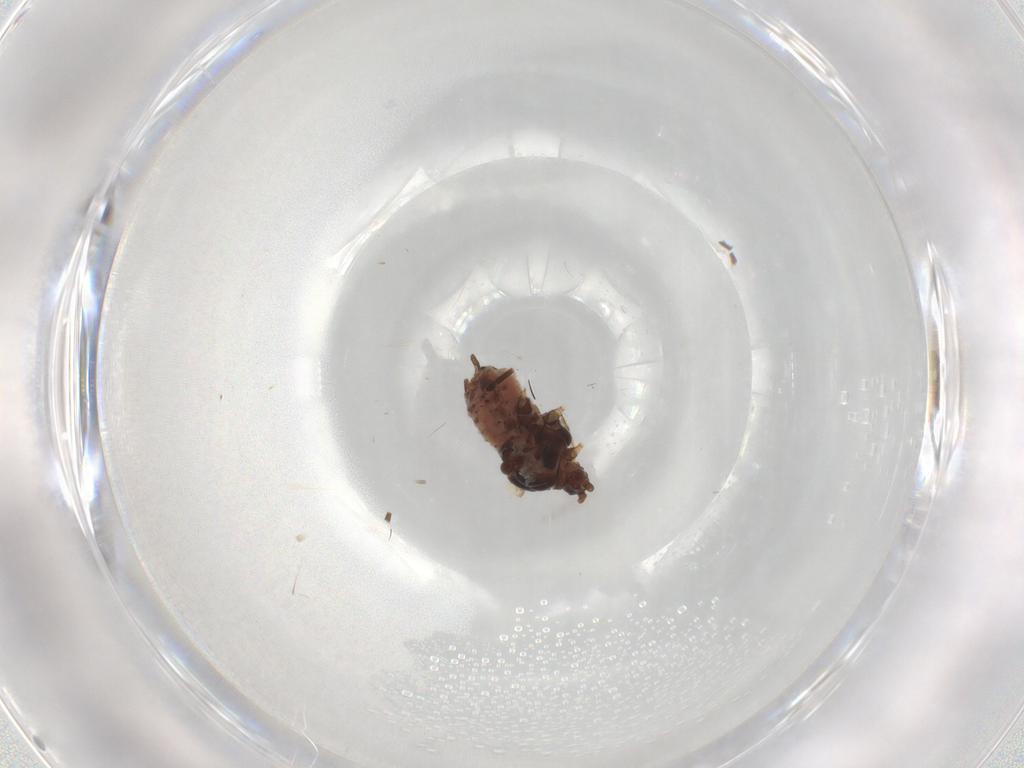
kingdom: Animalia
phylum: Arthropoda
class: Insecta
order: Hemiptera
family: Aphididae
